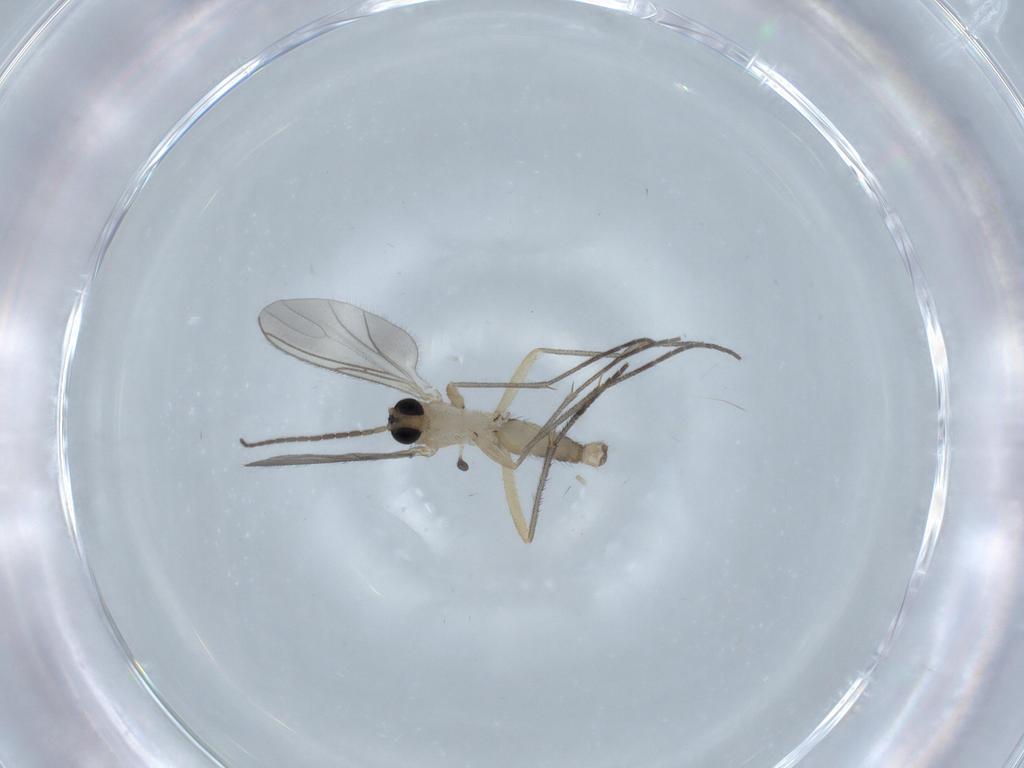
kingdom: Animalia
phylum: Arthropoda
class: Insecta
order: Diptera
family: Sciaridae
